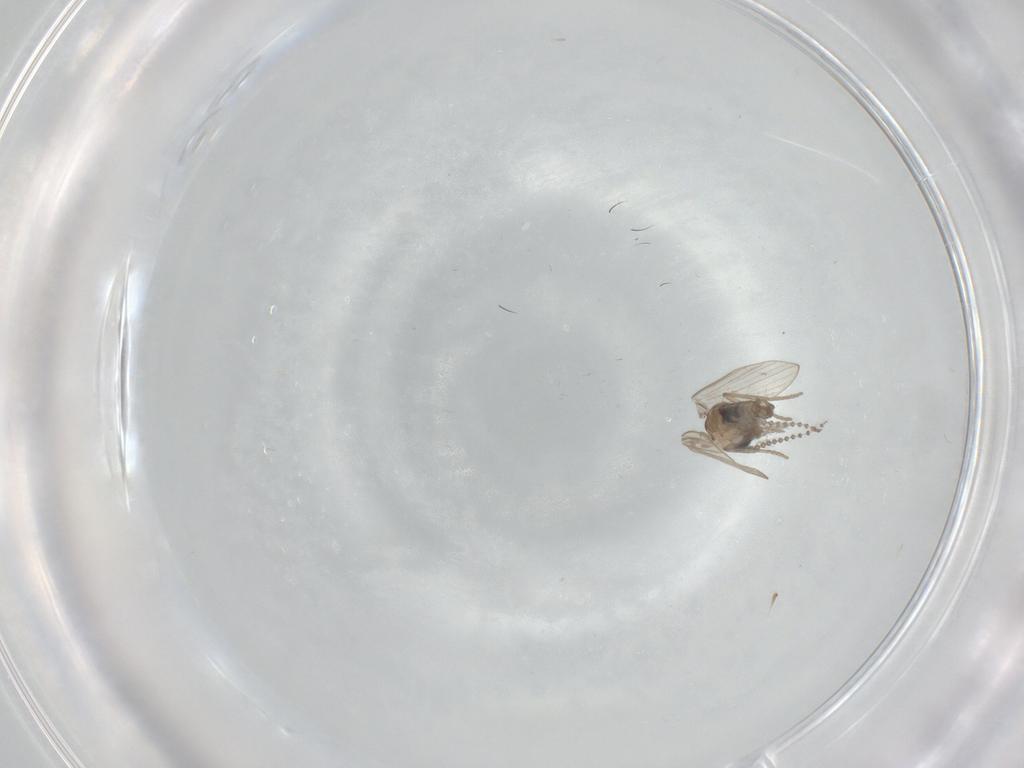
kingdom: Animalia
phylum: Arthropoda
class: Insecta
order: Diptera
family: Psychodidae
